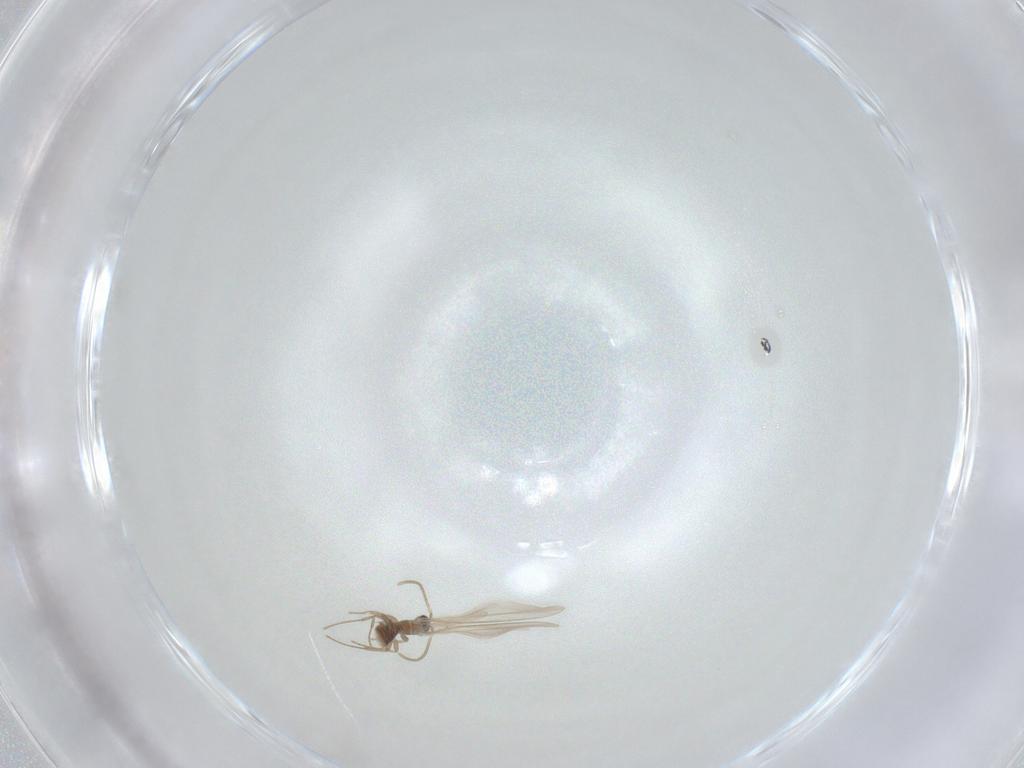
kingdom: Animalia
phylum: Arthropoda
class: Insecta
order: Hymenoptera
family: Formicidae
